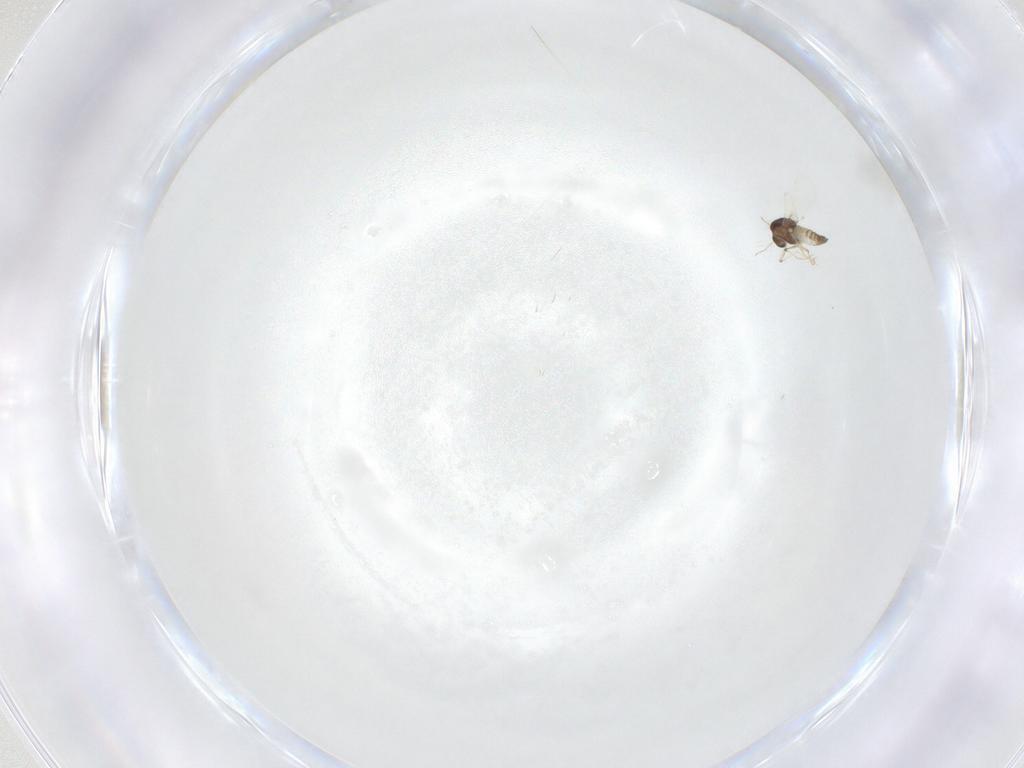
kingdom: Animalia
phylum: Arthropoda
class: Insecta
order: Diptera
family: Chironomidae
